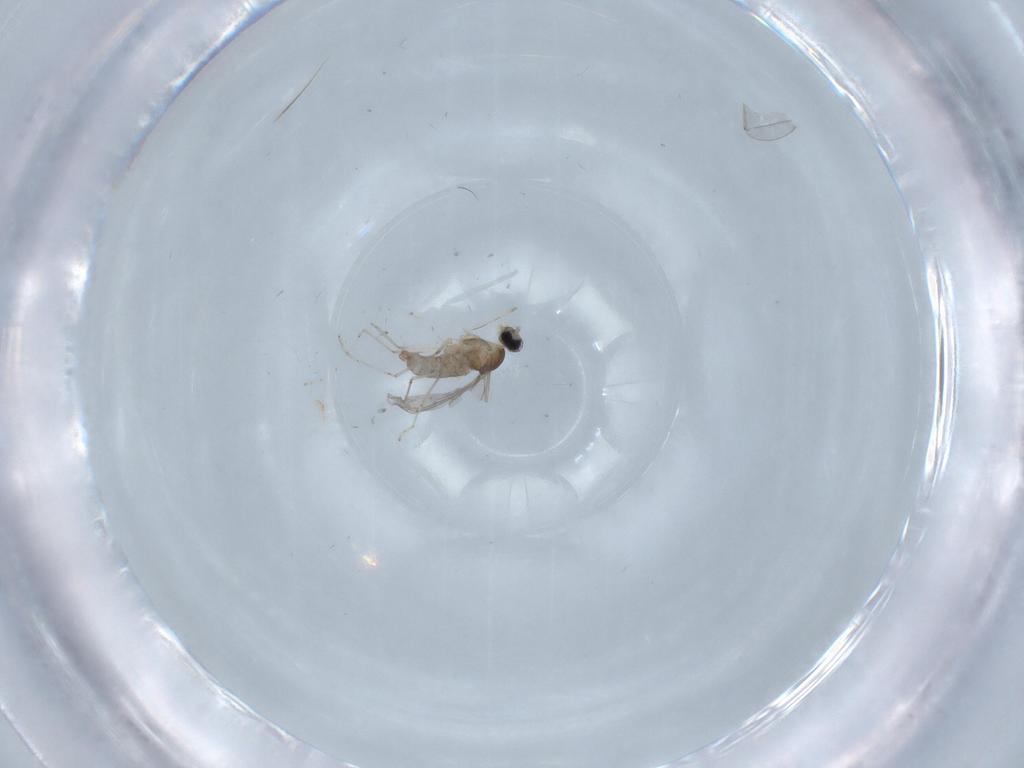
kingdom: Animalia
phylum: Arthropoda
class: Insecta
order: Diptera
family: Cecidomyiidae
